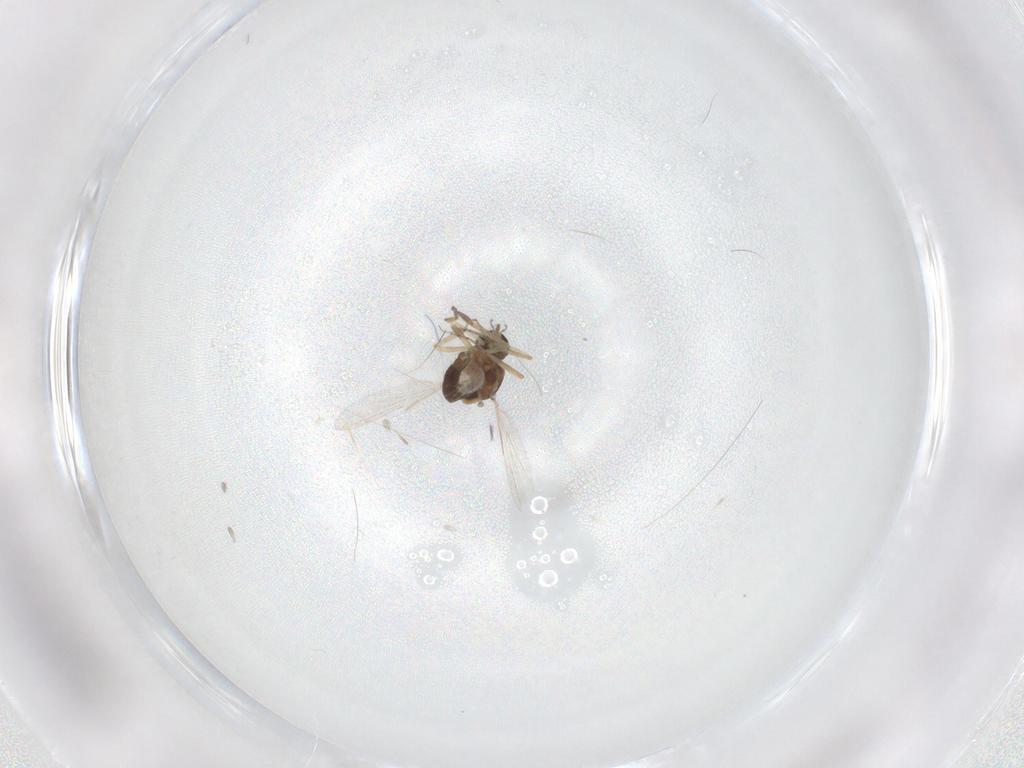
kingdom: Animalia
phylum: Arthropoda
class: Insecta
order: Diptera
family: Ceratopogonidae
